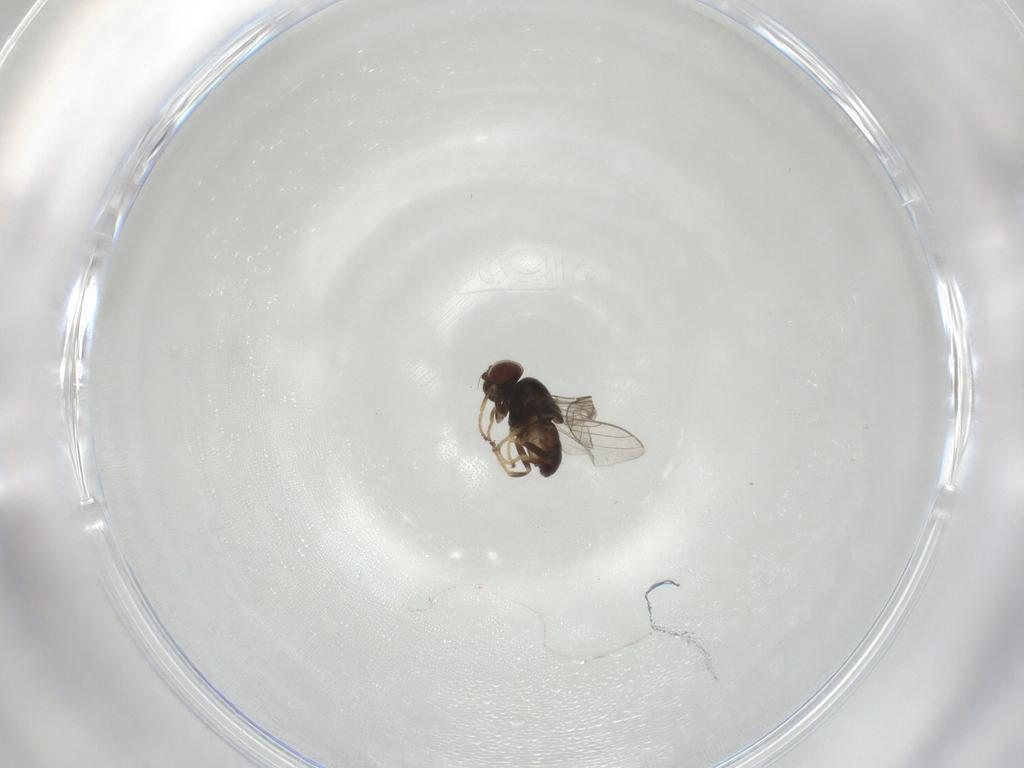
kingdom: Animalia
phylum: Arthropoda
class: Insecta
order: Diptera
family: Chloropidae
